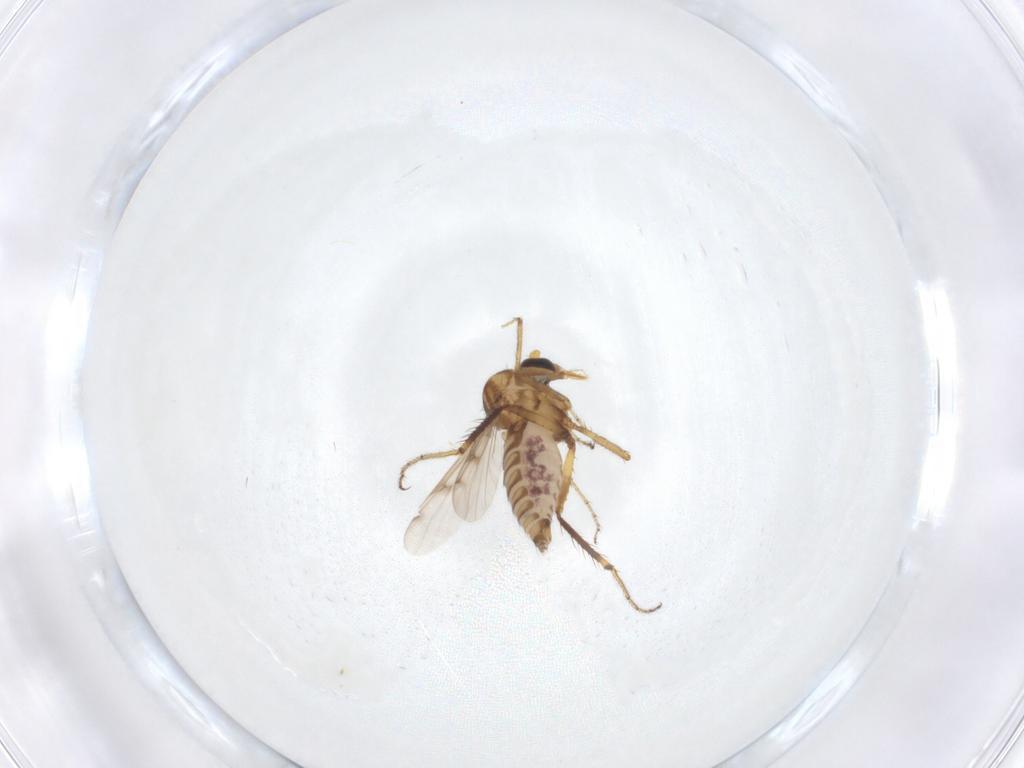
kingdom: Animalia
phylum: Arthropoda
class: Insecta
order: Diptera
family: Ceratopogonidae
